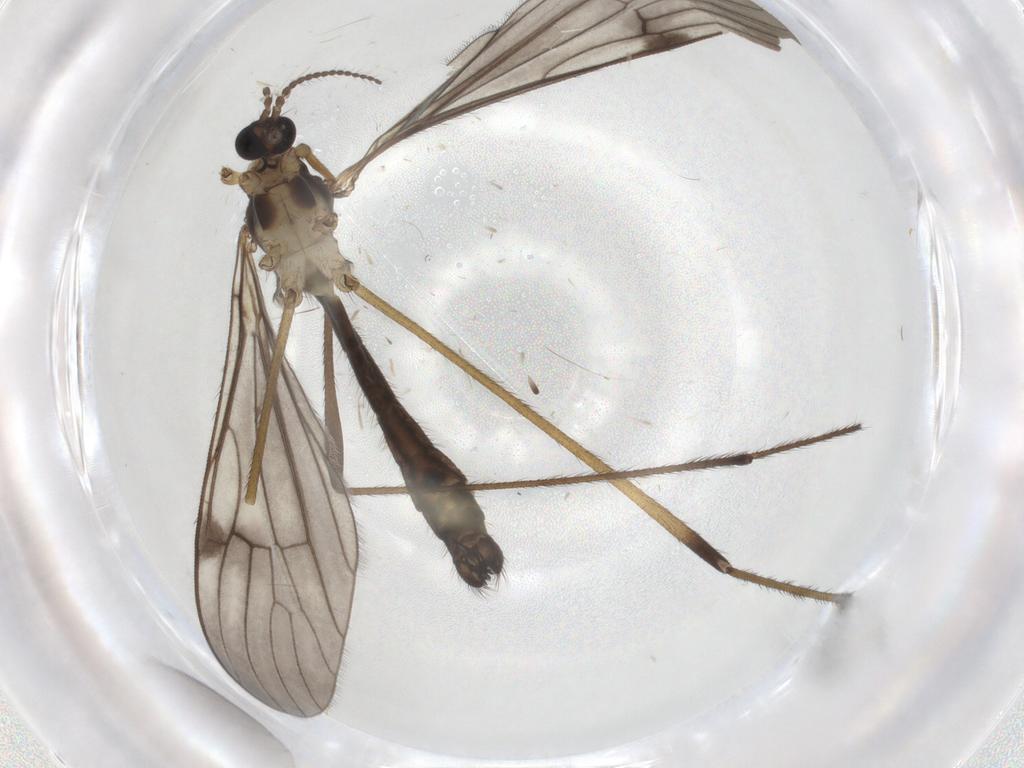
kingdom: Animalia
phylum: Arthropoda
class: Insecta
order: Diptera
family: Limoniidae
